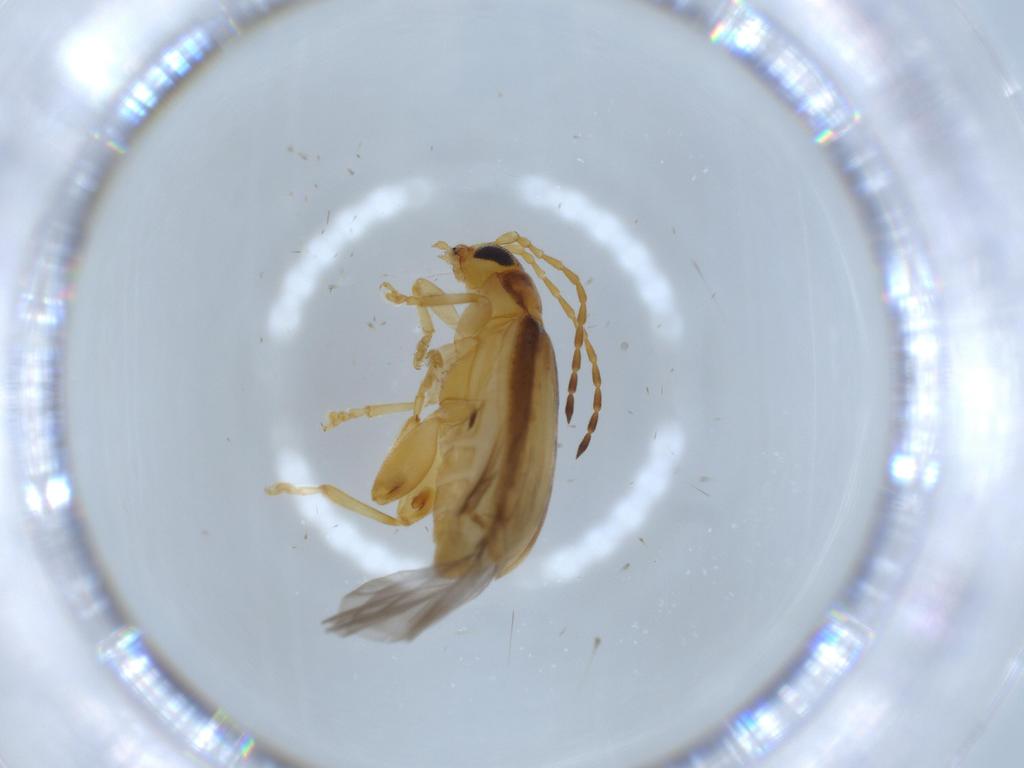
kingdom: Animalia
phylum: Arthropoda
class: Insecta
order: Coleoptera
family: Chrysomelidae
